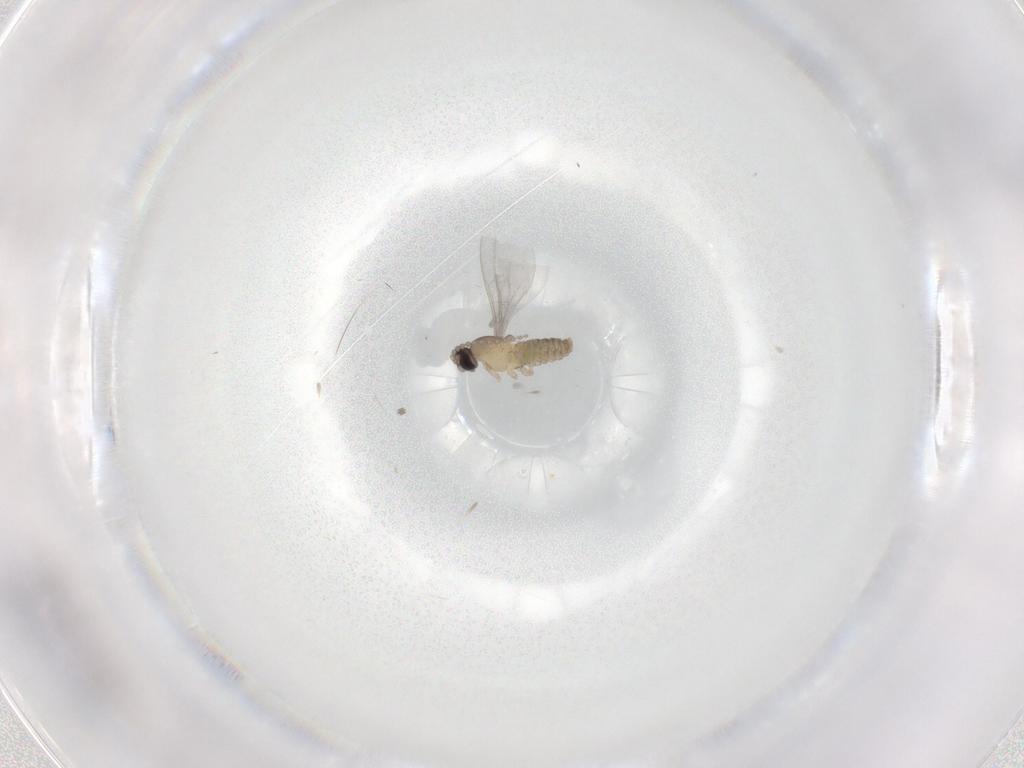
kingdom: Animalia
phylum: Arthropoda
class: Insecta
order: Diptera
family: Cecidomyiidae
